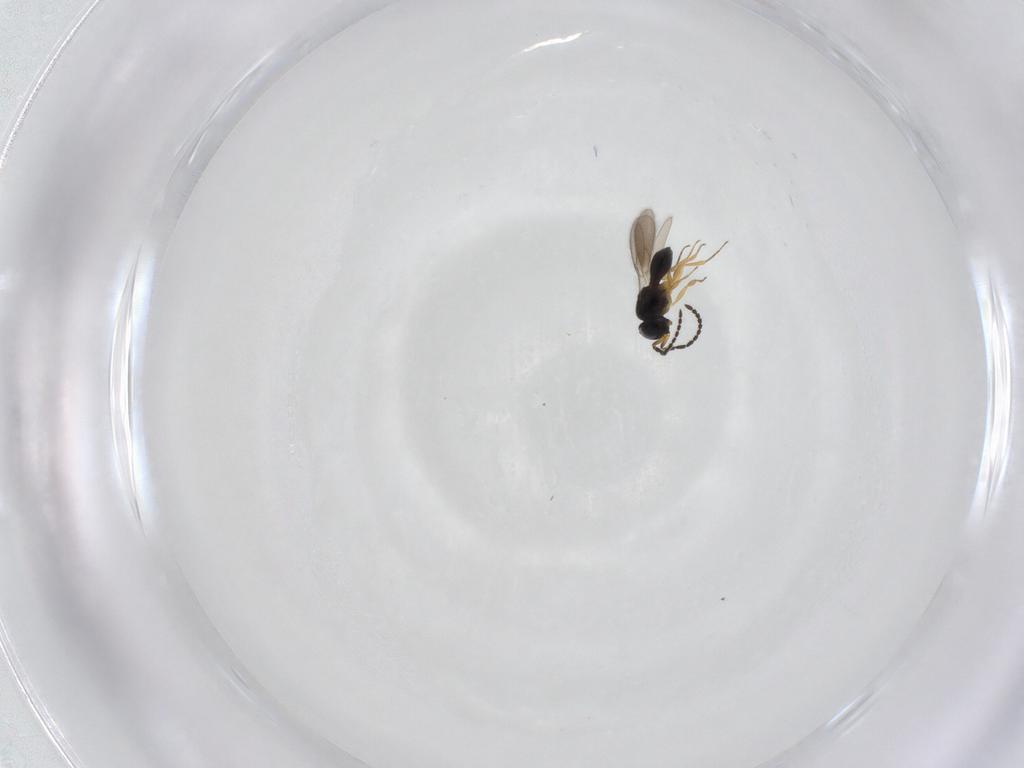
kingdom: Animalia
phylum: Arthropoda
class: Insecta
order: Hymenoptera
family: Scelionidae
